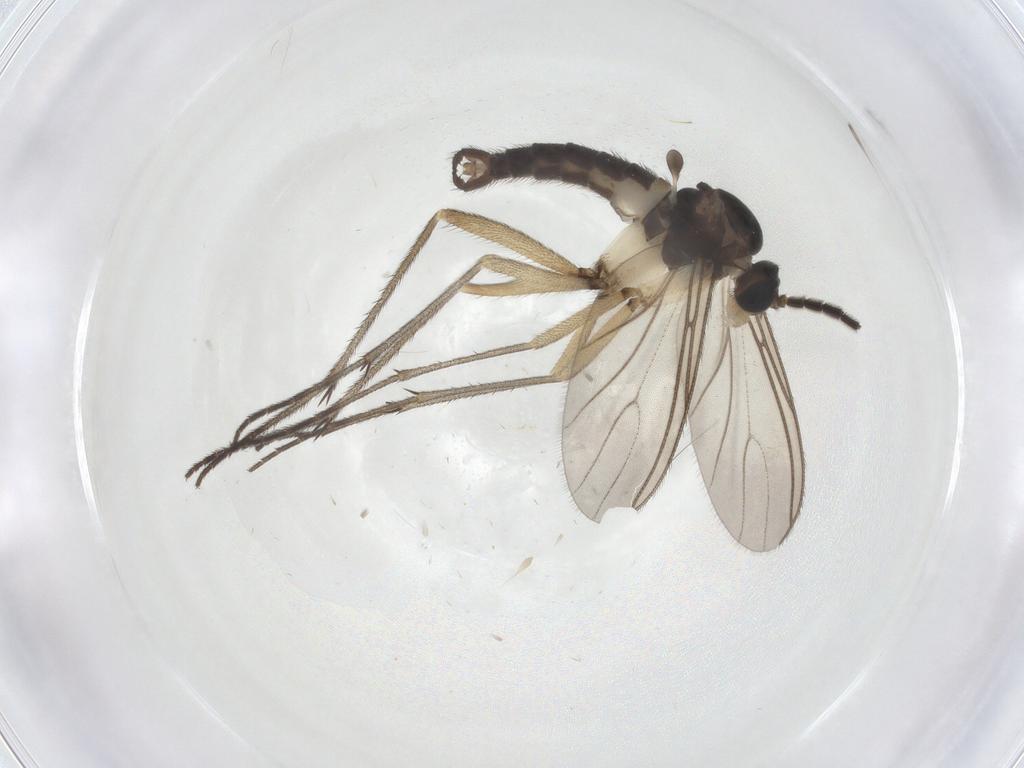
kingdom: Animalia
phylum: Arthropoda
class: Insecta
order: Diptera
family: Sciaridae
